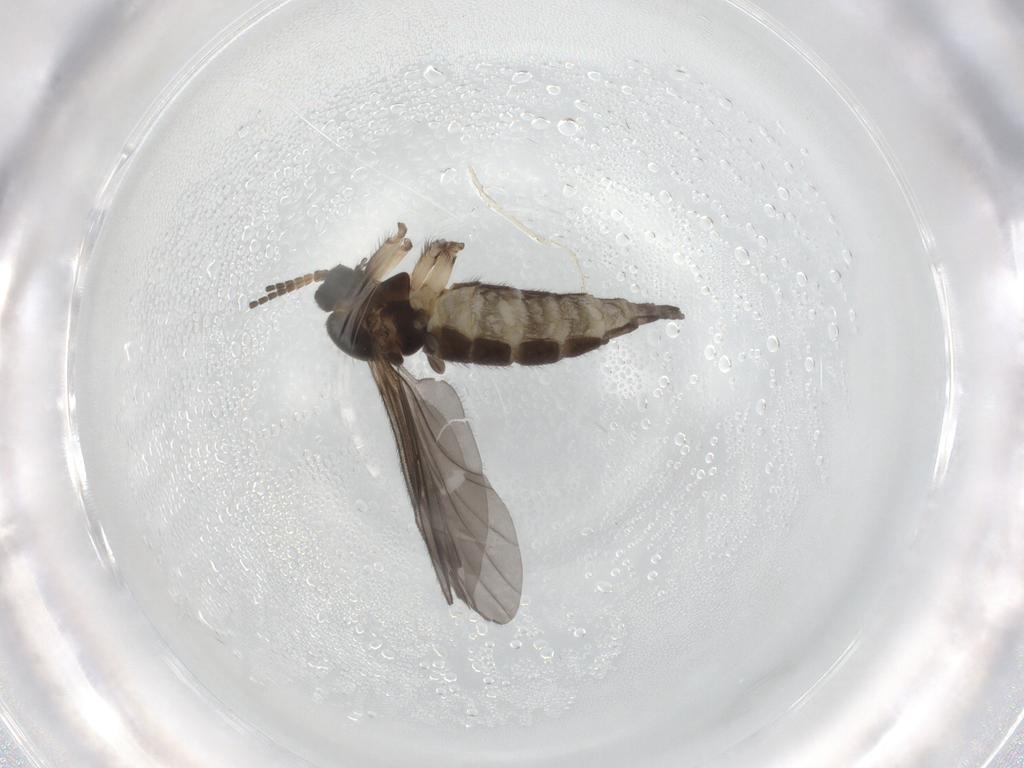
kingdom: Animalia
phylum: Arthropoda
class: Insecta
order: Diptera
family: Sciaridae
